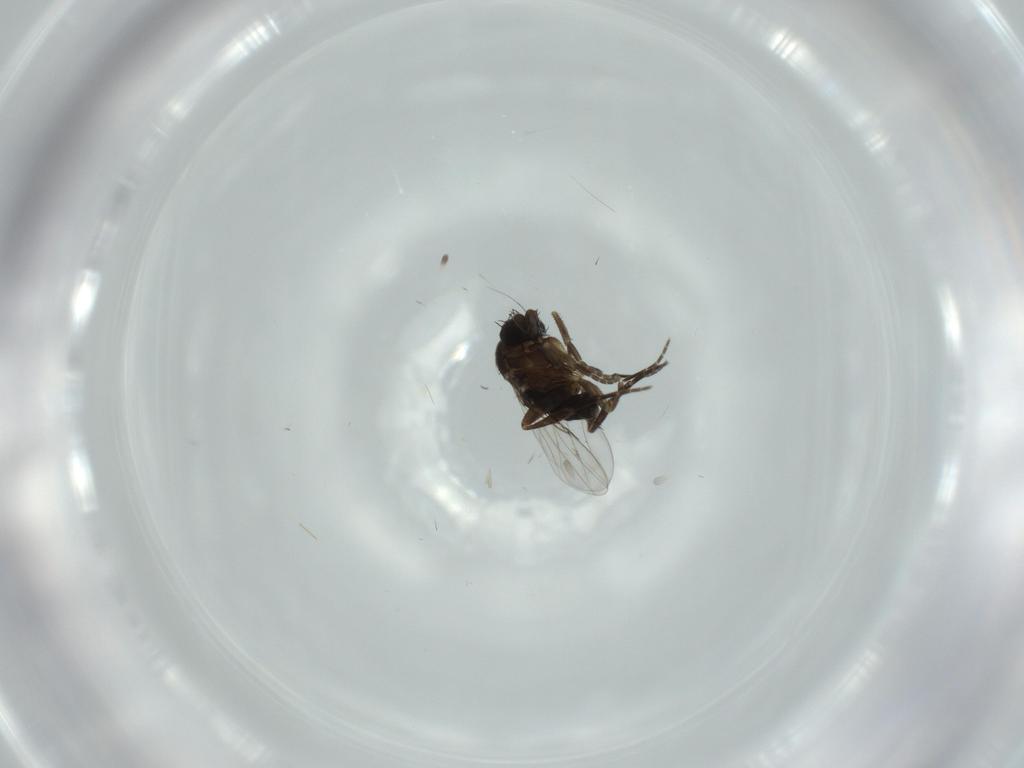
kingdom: Animalia
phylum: Arthropoda
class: Insecta
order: Diptera
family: Phoridae
